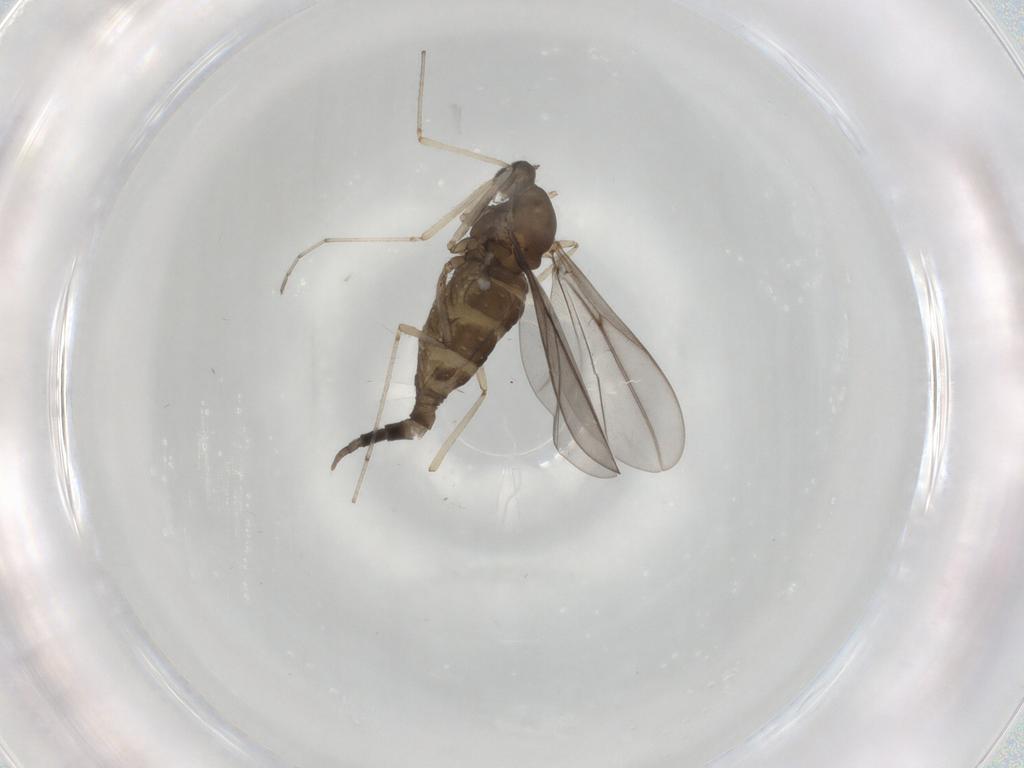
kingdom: Animalia
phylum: Arthropoda
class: Insecta
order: Diptera
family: Cecidomyiidae
